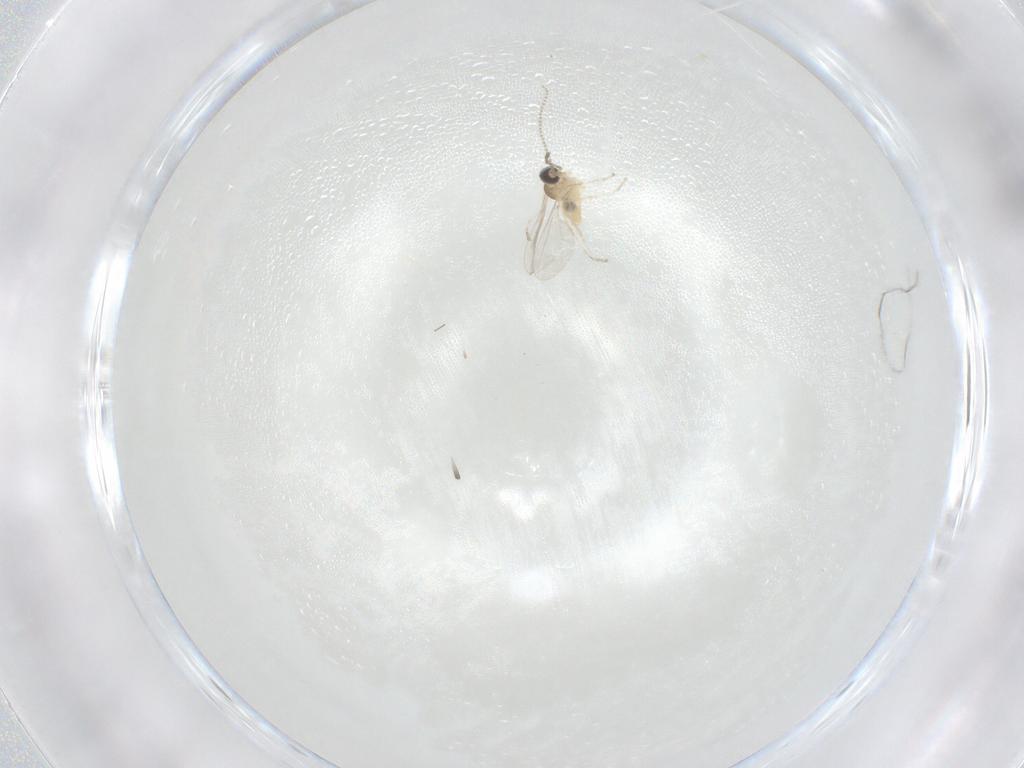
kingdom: Animalia
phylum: Arthropoda
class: Insecta
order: Diptera
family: Cecidomyiidae
